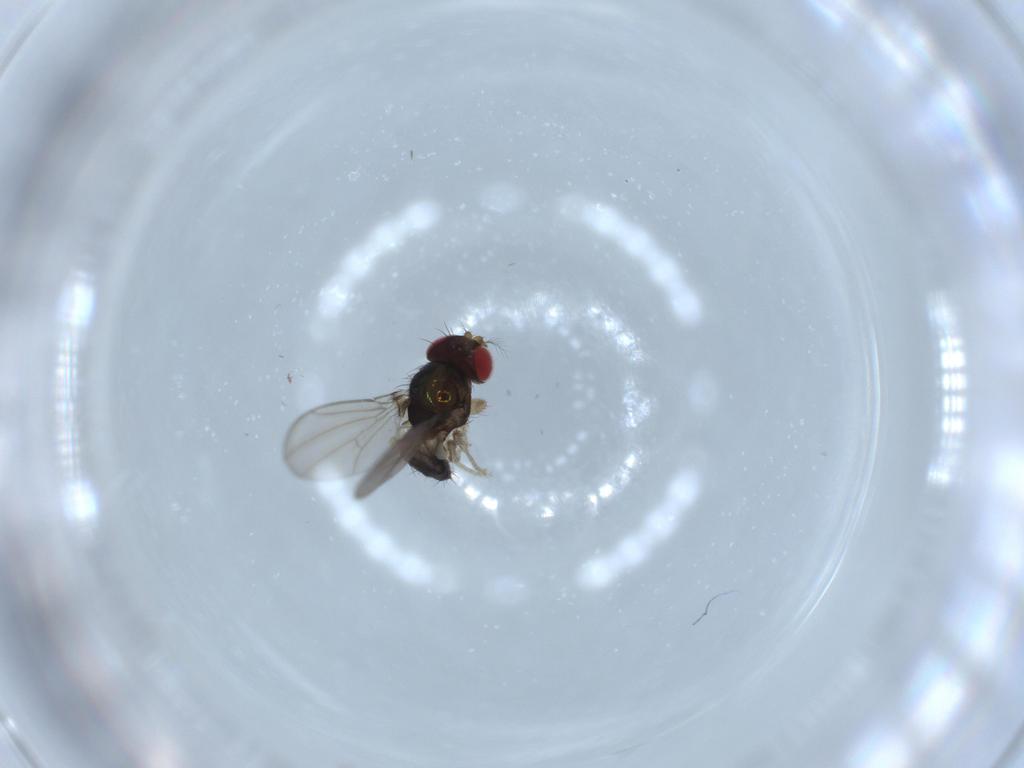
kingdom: Animalia
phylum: Arthropoda
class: Insecta
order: Diptera
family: Drosophilidae
